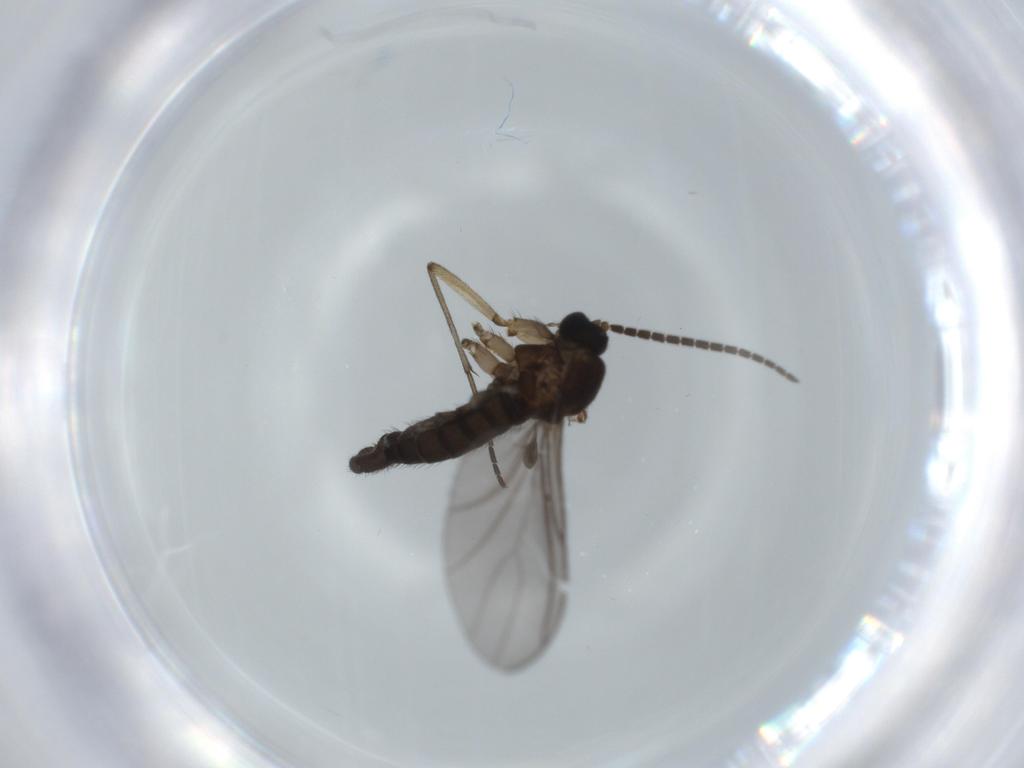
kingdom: Animalia
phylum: Arthropoda
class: Insecta
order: Diptera
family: Sciaridae
